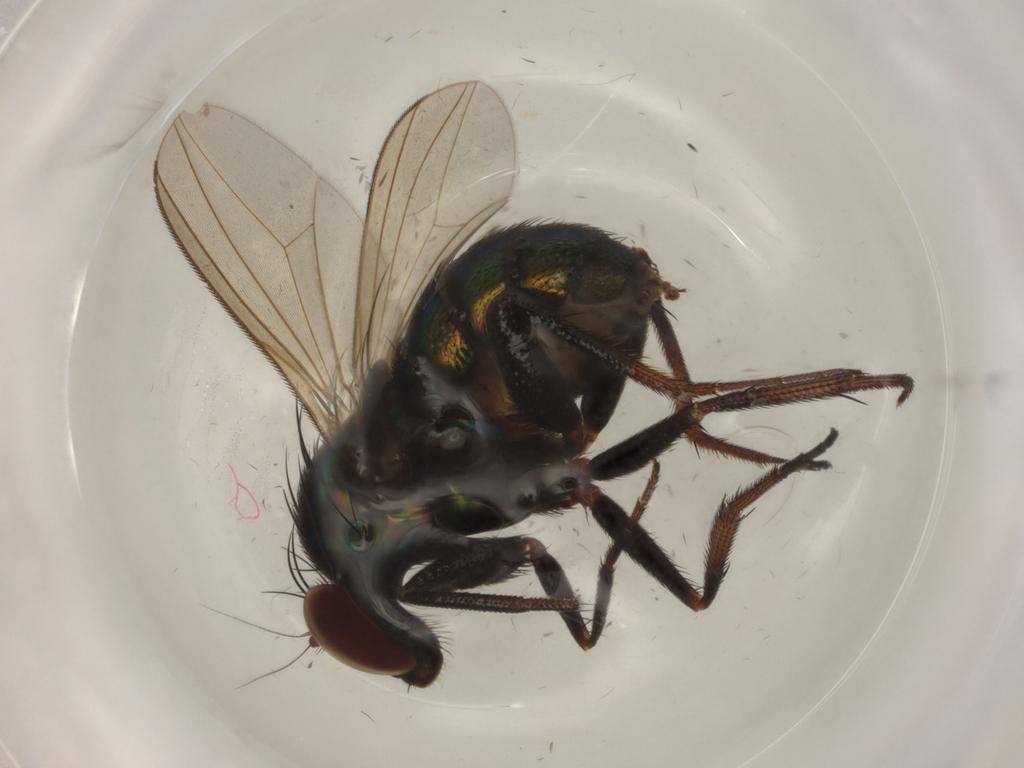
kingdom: Animalia
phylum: Arthropoda
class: Insecta
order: Diptera
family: Dolichopodidae
